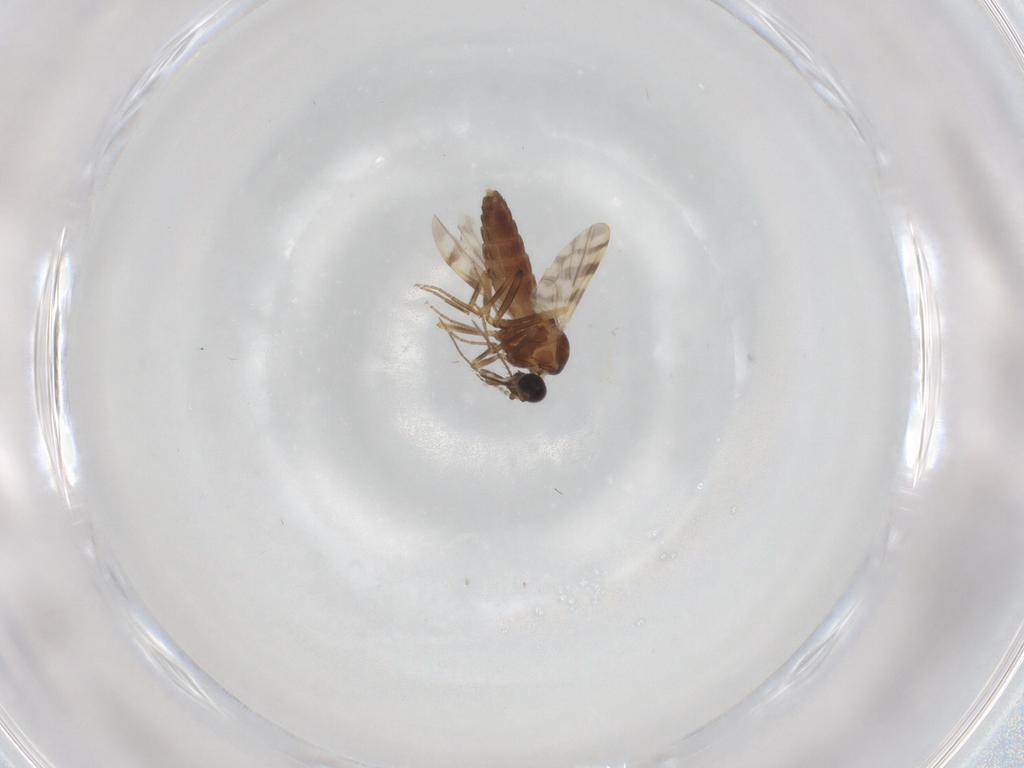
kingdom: Animalia
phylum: Arthropoda
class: Insecta
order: Diptera
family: Ceratopogonidae
